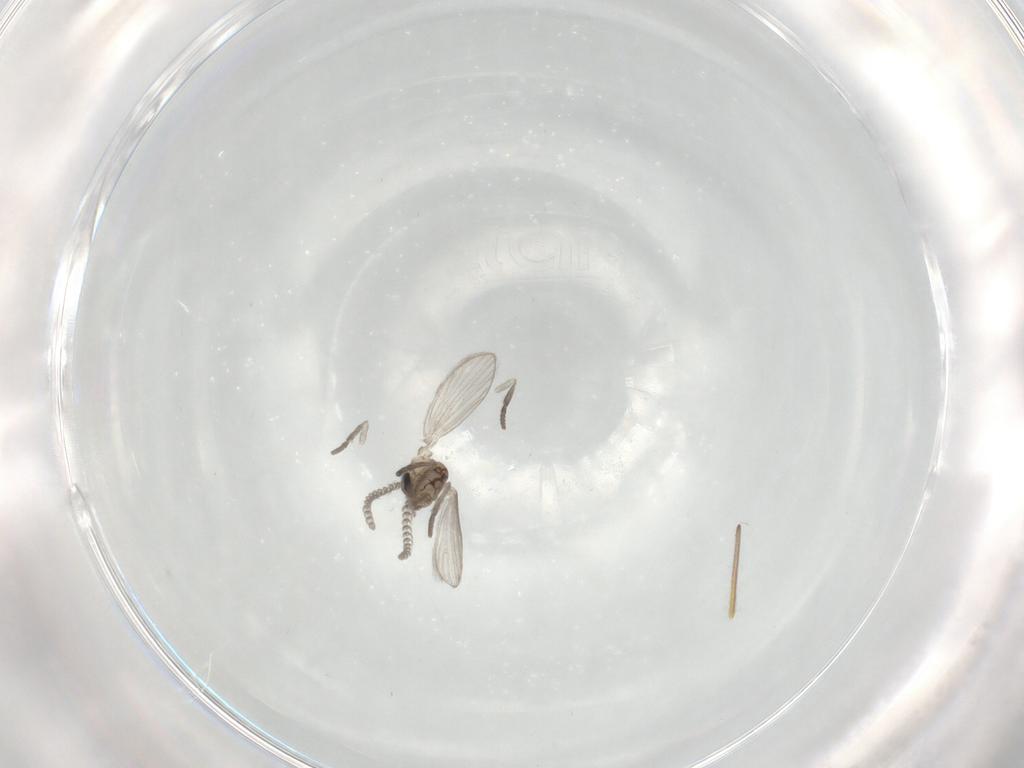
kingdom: Animalia
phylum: Arthropoda
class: Insecta
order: Diptera
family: Psychodidae
